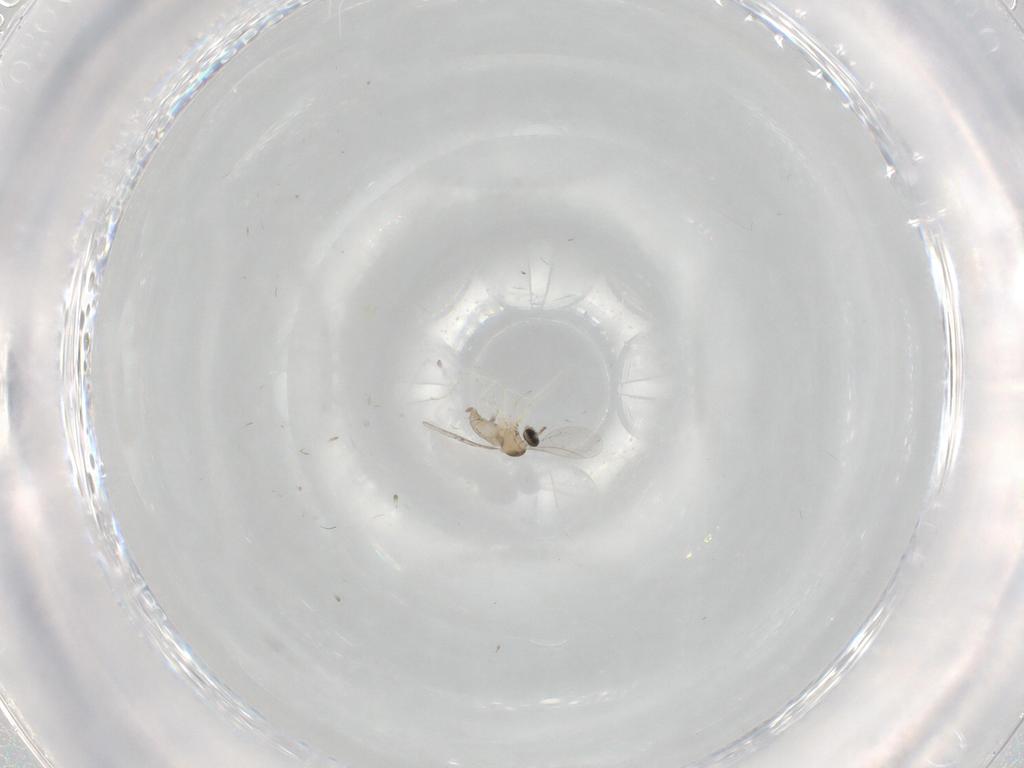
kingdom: Animalia
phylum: Arthropoda
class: Insecta
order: Diptera
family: Cecidomyiidae
